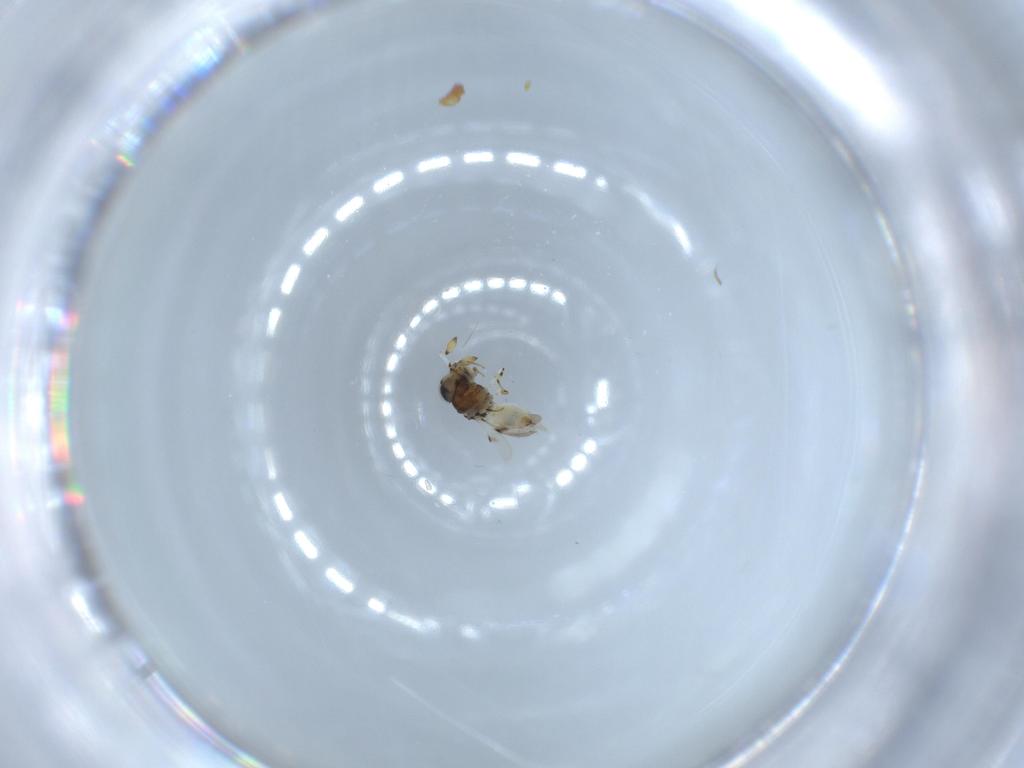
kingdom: Animalia
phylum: Arthropoda
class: Insecta
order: Hymenoptera
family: Scelionidae
